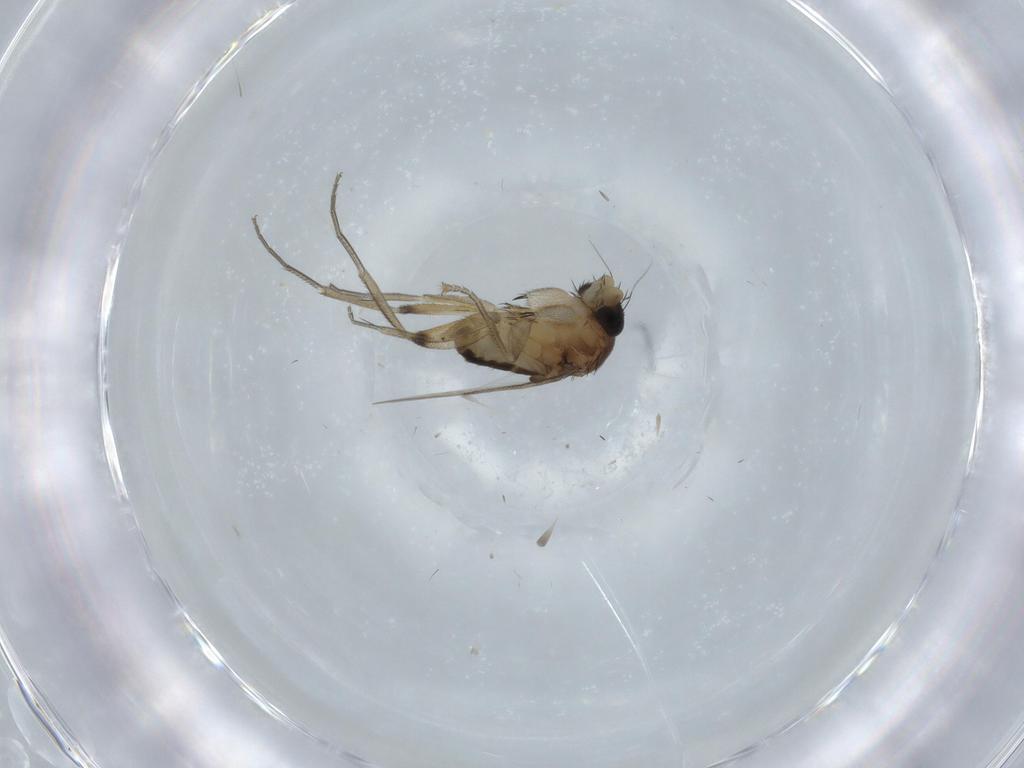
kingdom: Animalia
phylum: Arthropoda
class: Insecta
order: Diptera
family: Phoridae
